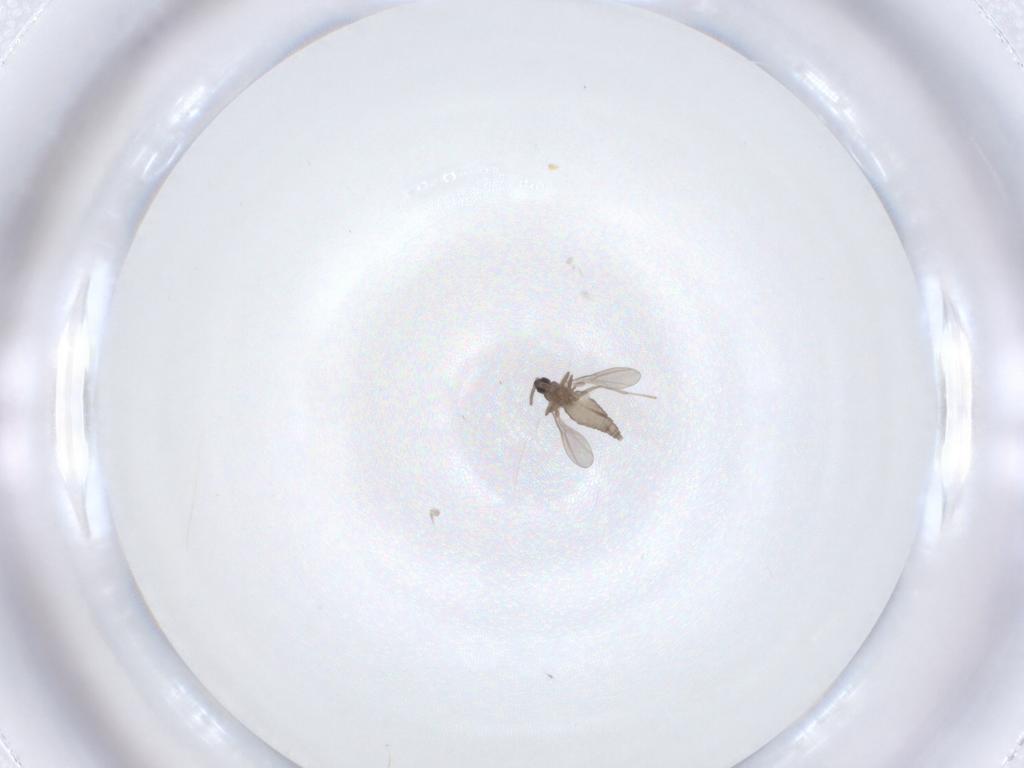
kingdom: Animalia
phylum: Arthropoda
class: Insecta
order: Diptera
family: Cecidomyiidae
